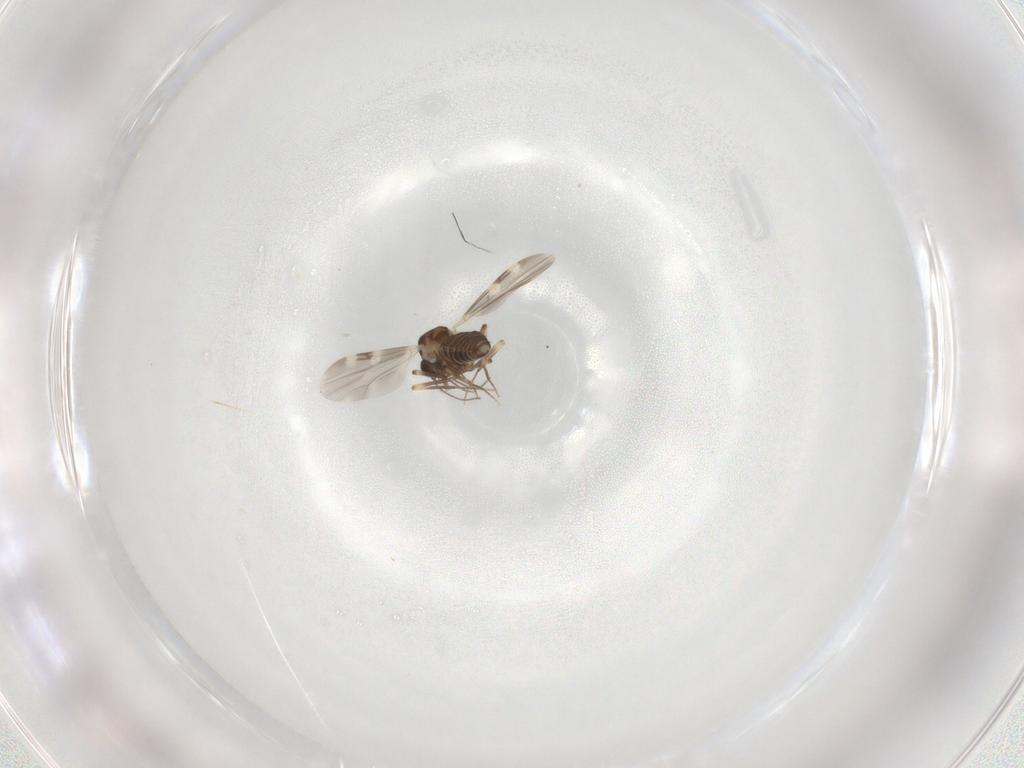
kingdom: Animalia
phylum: Arthropoda
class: Insecta
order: Diptera
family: Ceratopogonidae
